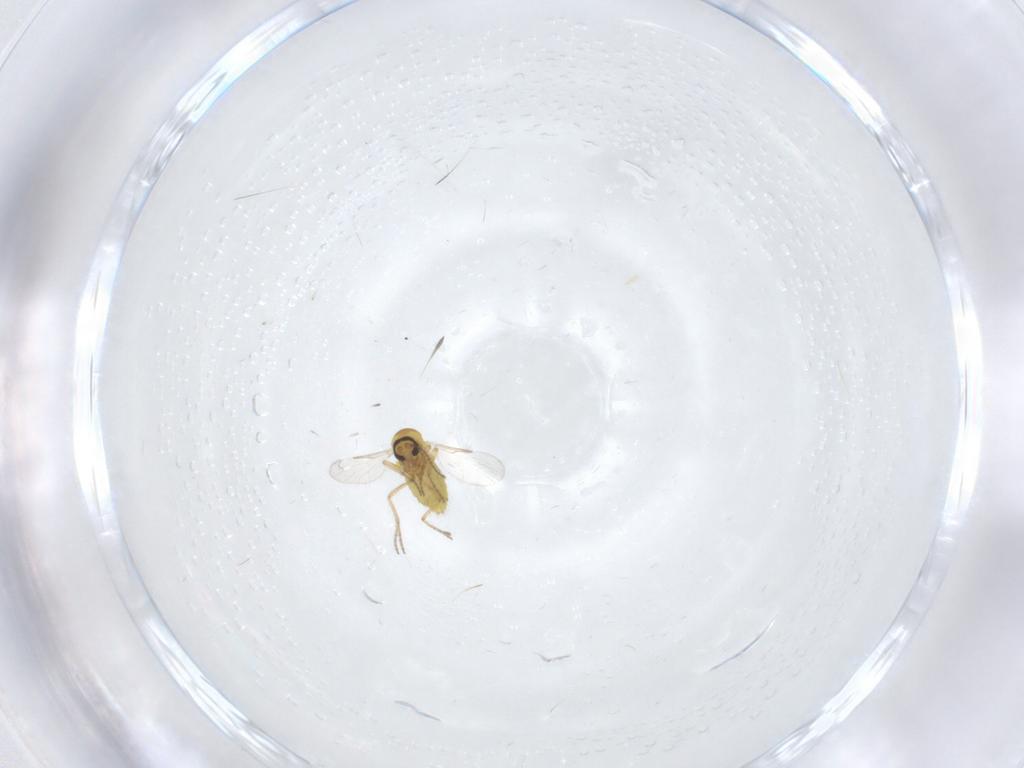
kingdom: Animalia
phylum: Arthropoda
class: Insecta
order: Diptera
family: Ceratopogonidae
